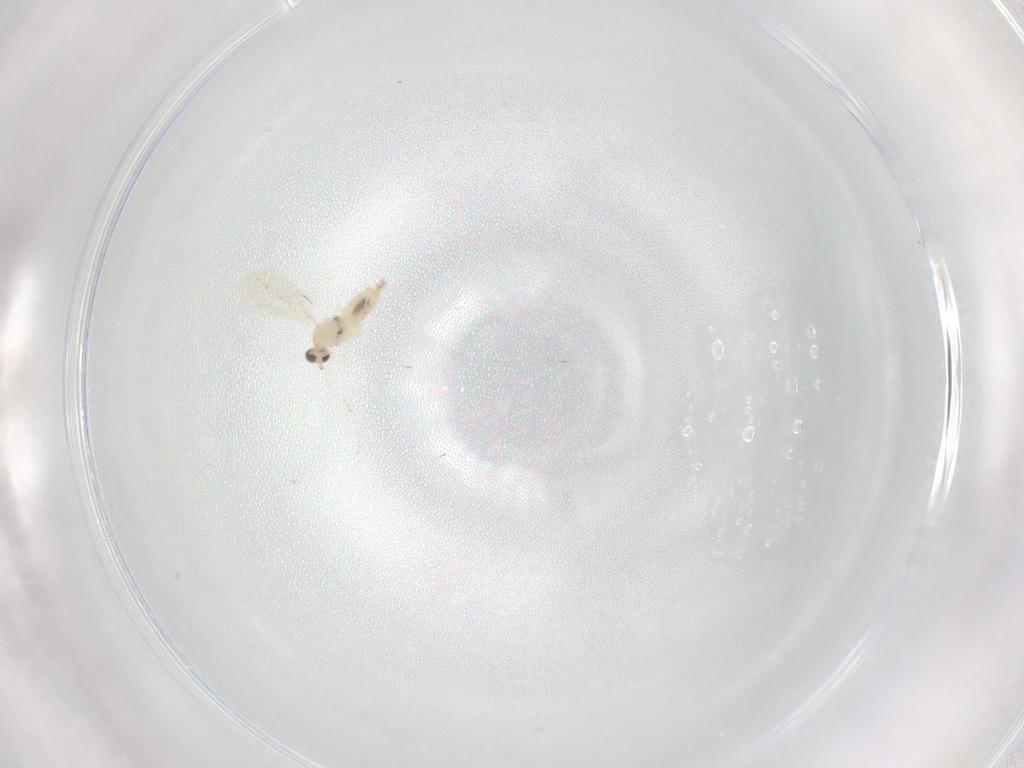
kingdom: Animalia
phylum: Arthropoda
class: Insecta
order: Diptera
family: Cecidomyiidae
